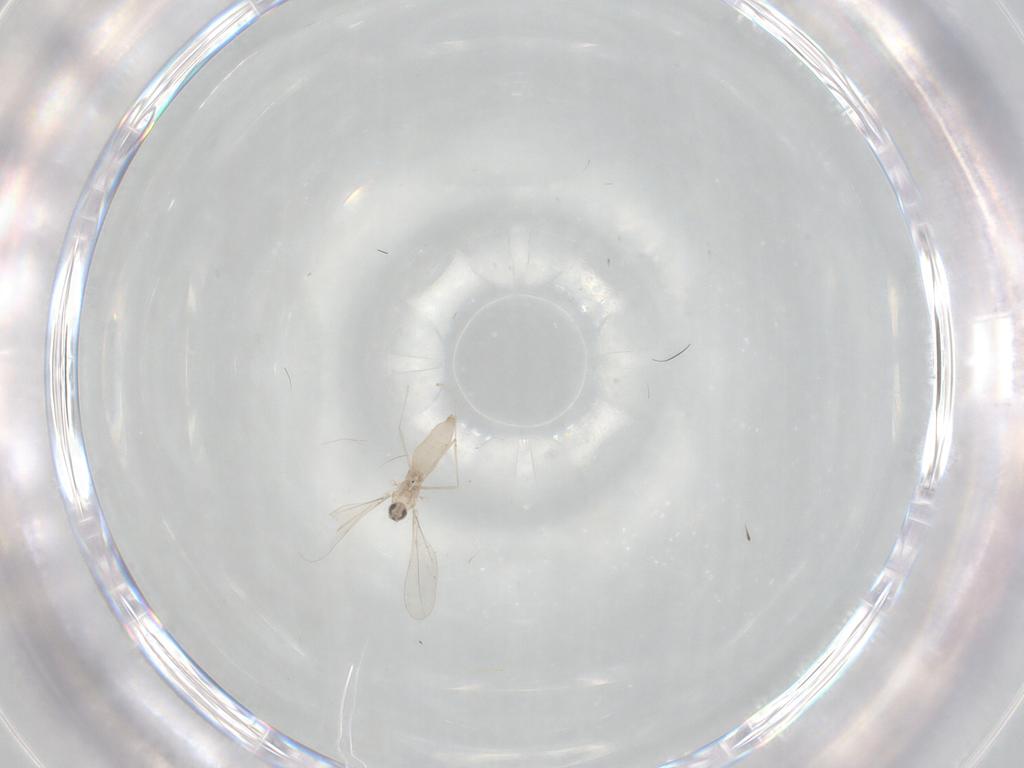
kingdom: Animalia
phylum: Arthropoda
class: Insecta
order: Diptera
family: Cecidomyiidae
